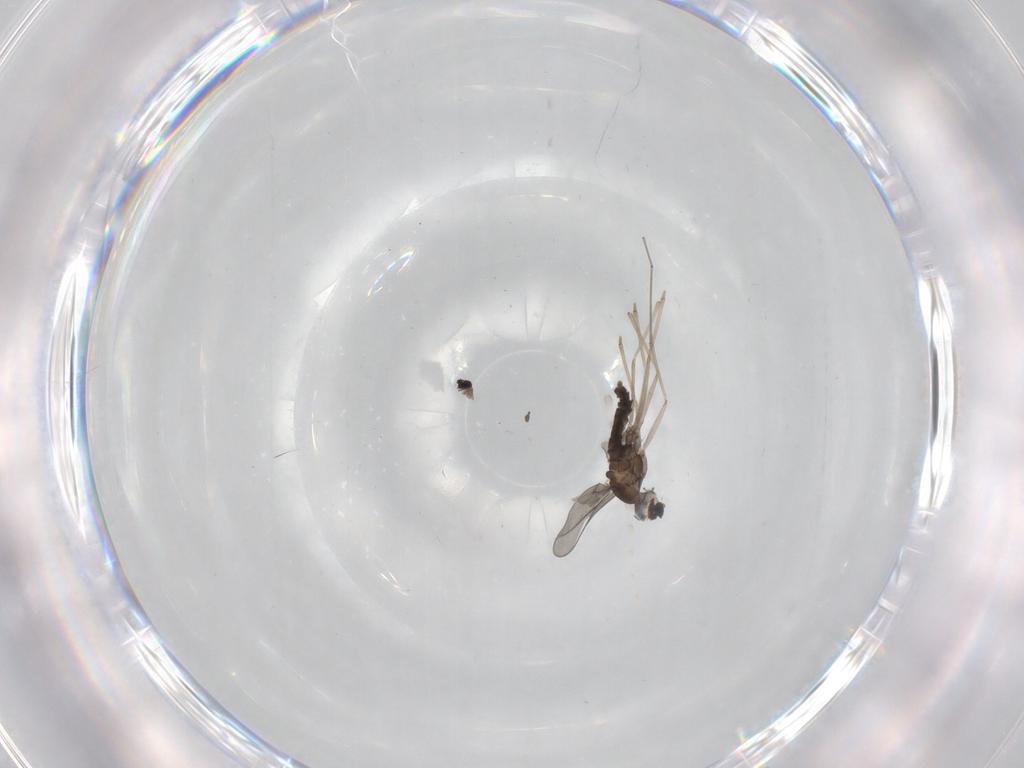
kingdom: Animalia
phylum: Arthropoda
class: Insecta
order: Diptera
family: Cecidomyiidae
